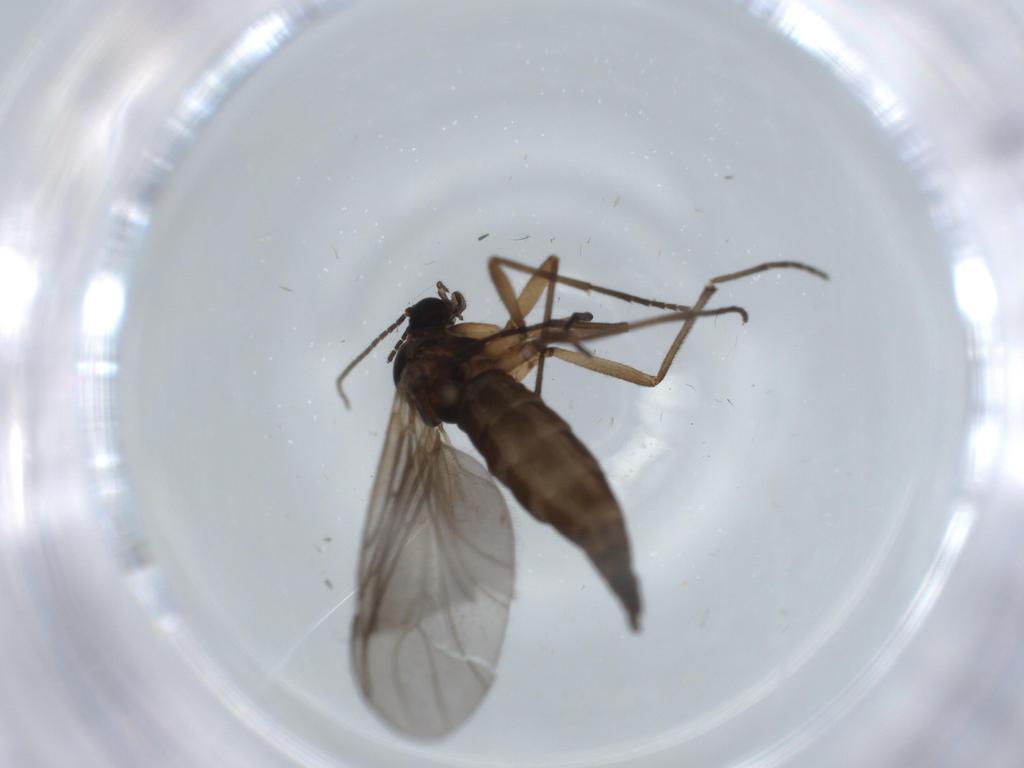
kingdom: Animalia
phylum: Arthropoda
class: Insecta
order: Diptera
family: Sciaridae
